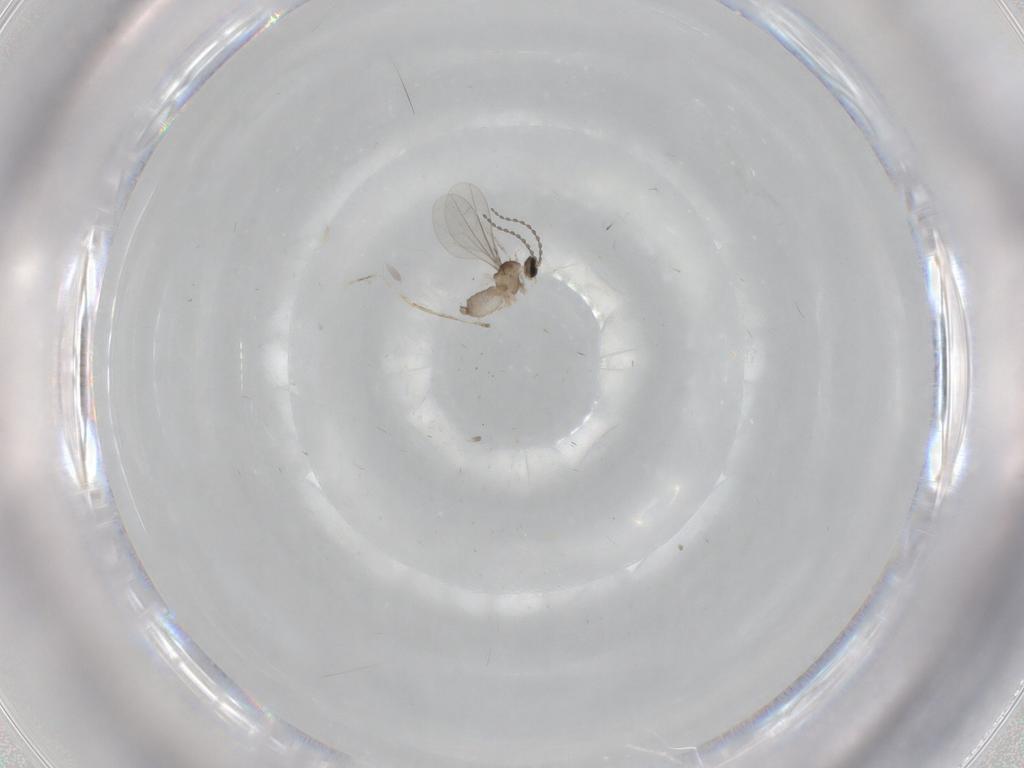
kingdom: Animalia
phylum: Arthropoda
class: Insecta
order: Diptera
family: Cecidomyiidae
